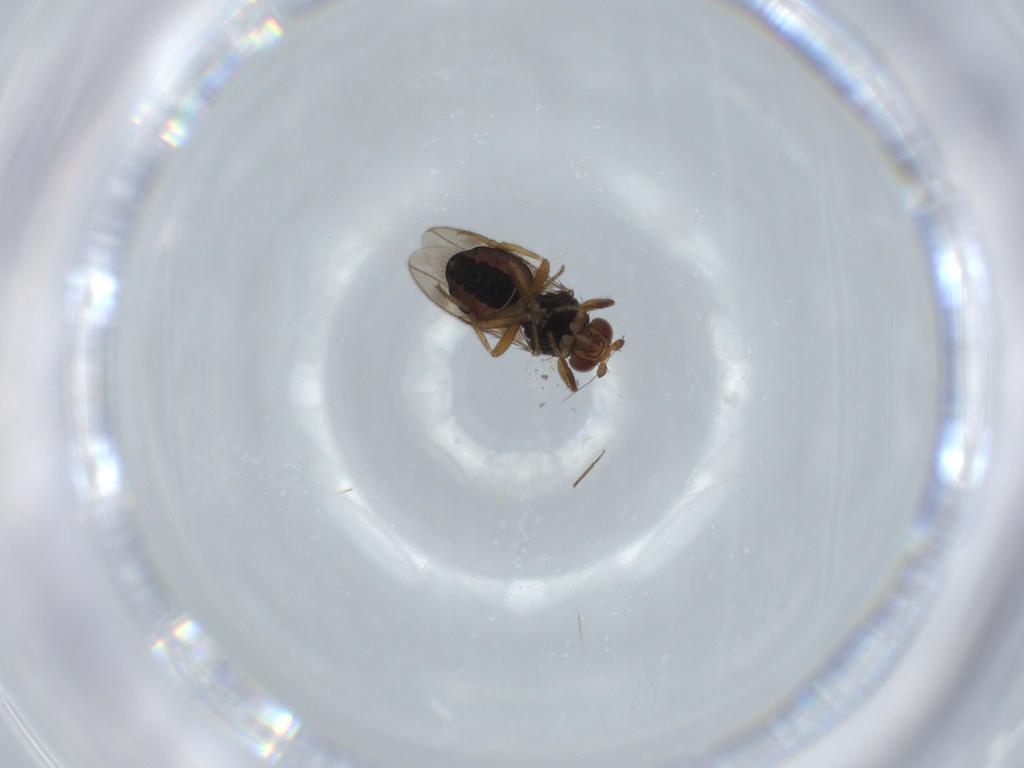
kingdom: Animalia
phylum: Arthropoda
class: Insecta
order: Diptera
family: Sphaeroceridae
